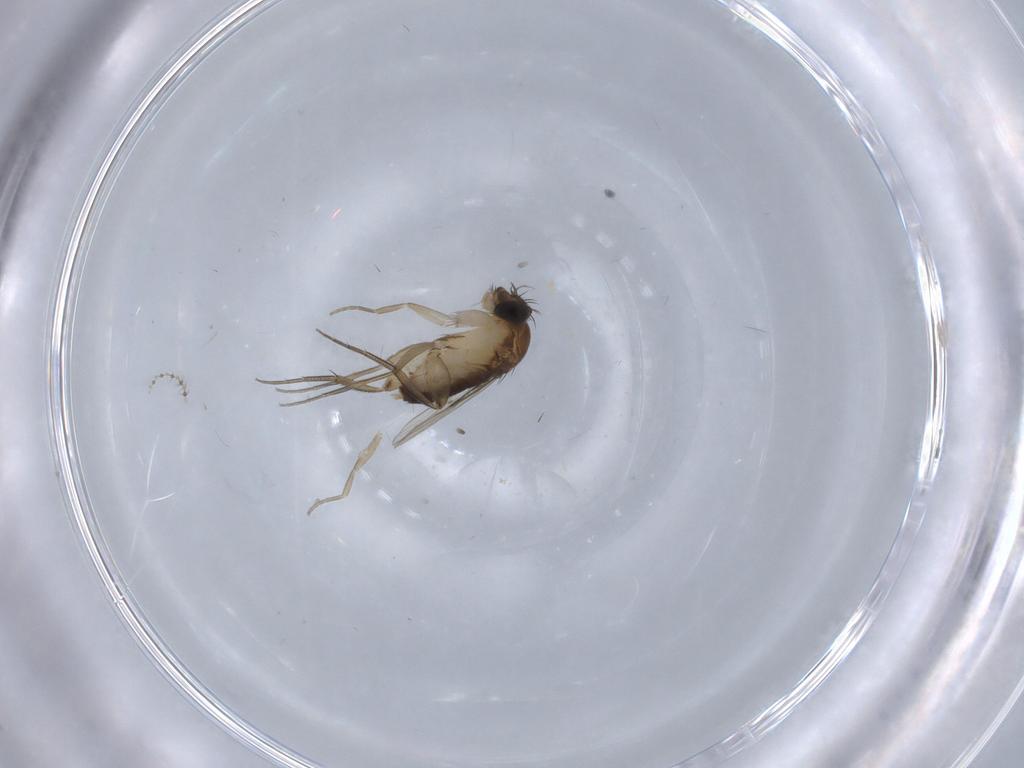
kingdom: Animalia
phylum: Arthropoda
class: Insecta
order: Diptera
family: Cecidomyiidae
